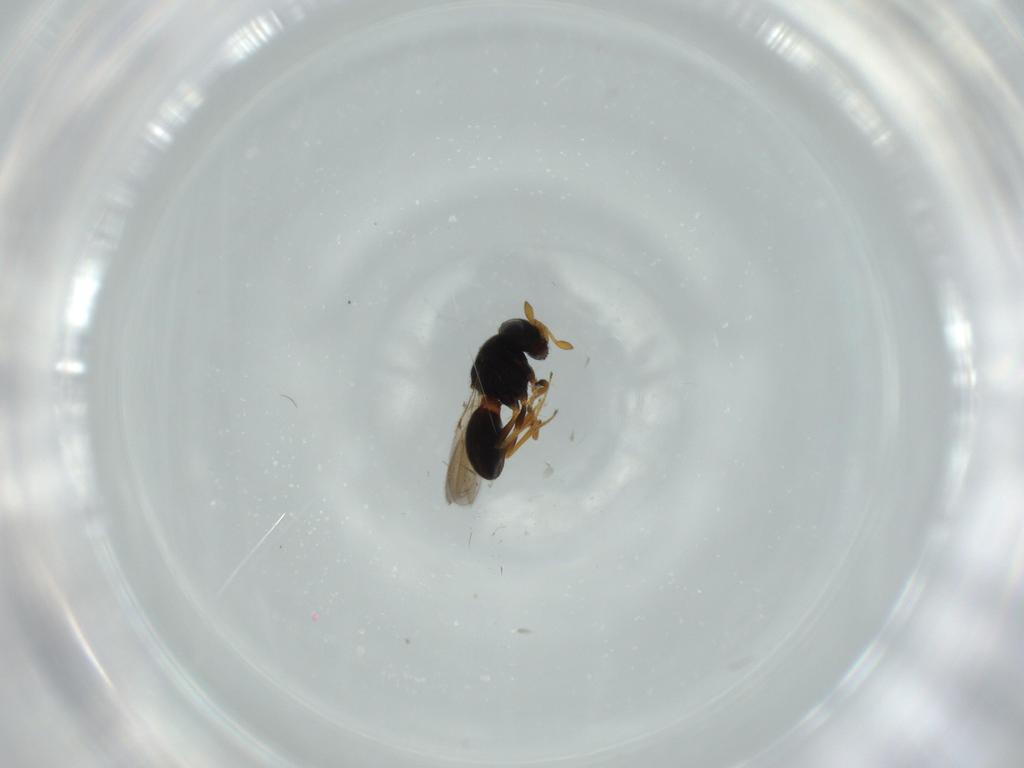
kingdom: Animalia
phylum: Arthropoda
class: Insecta
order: Hymenoptera
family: Scelionidae
